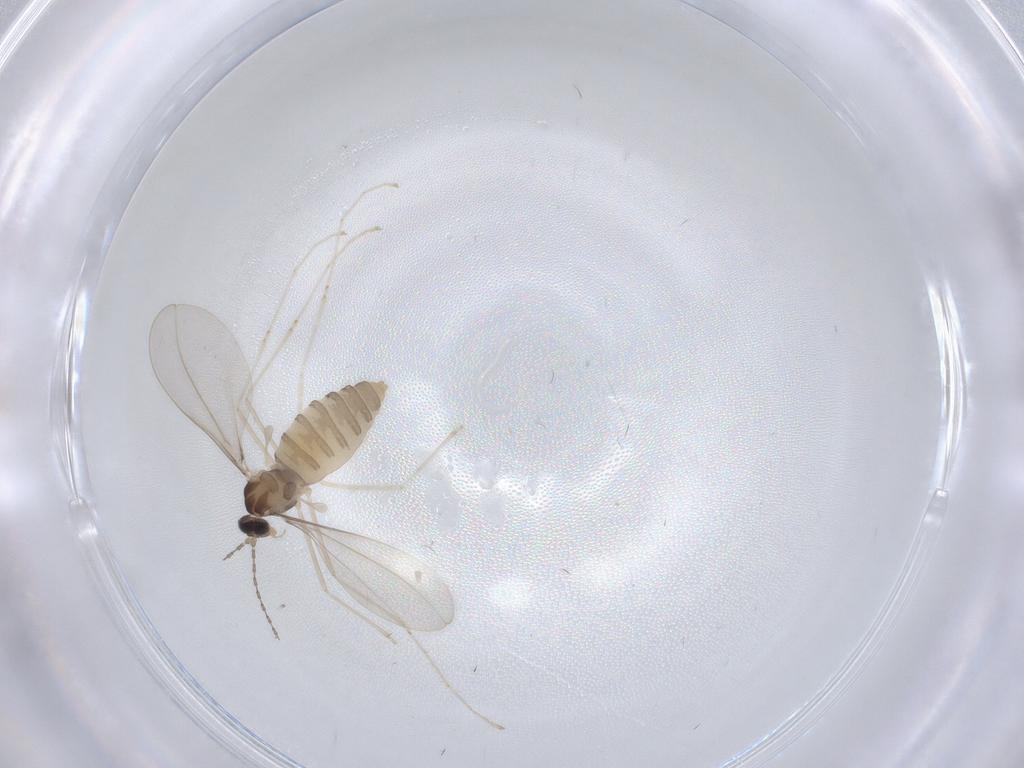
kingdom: Animalia
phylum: Arthropoda
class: Insecta
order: Diptera
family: Cecidomyiidae
